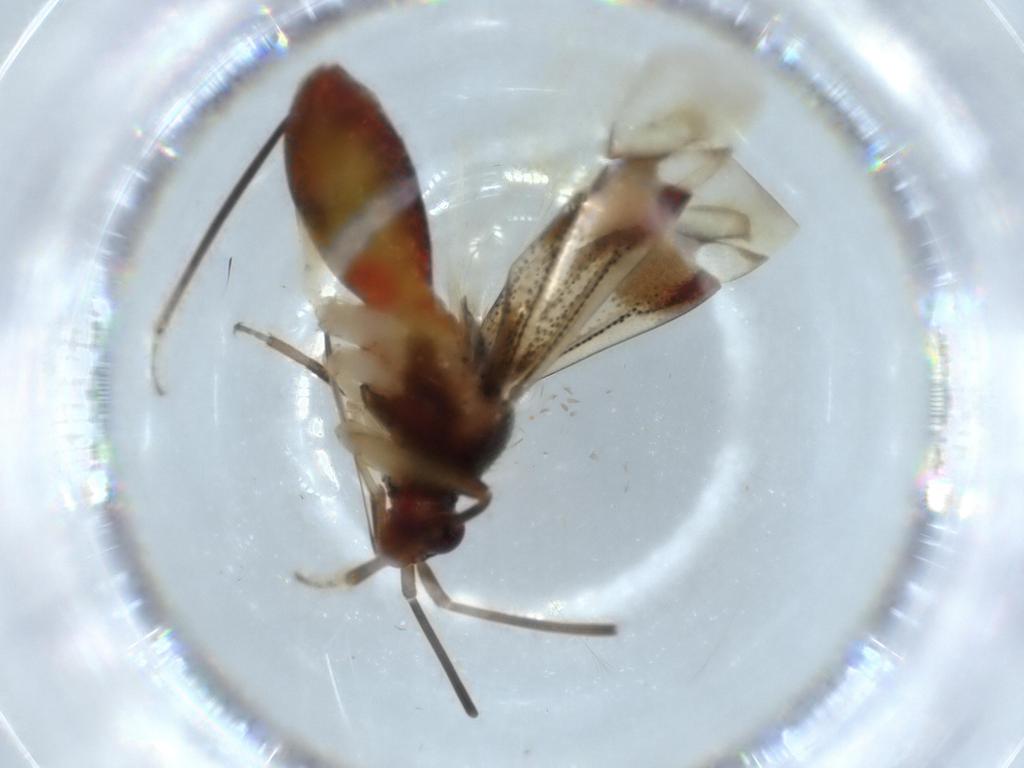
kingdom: Animalia
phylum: Arthropoda
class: Insecta
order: Hemiptera
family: Miridae
